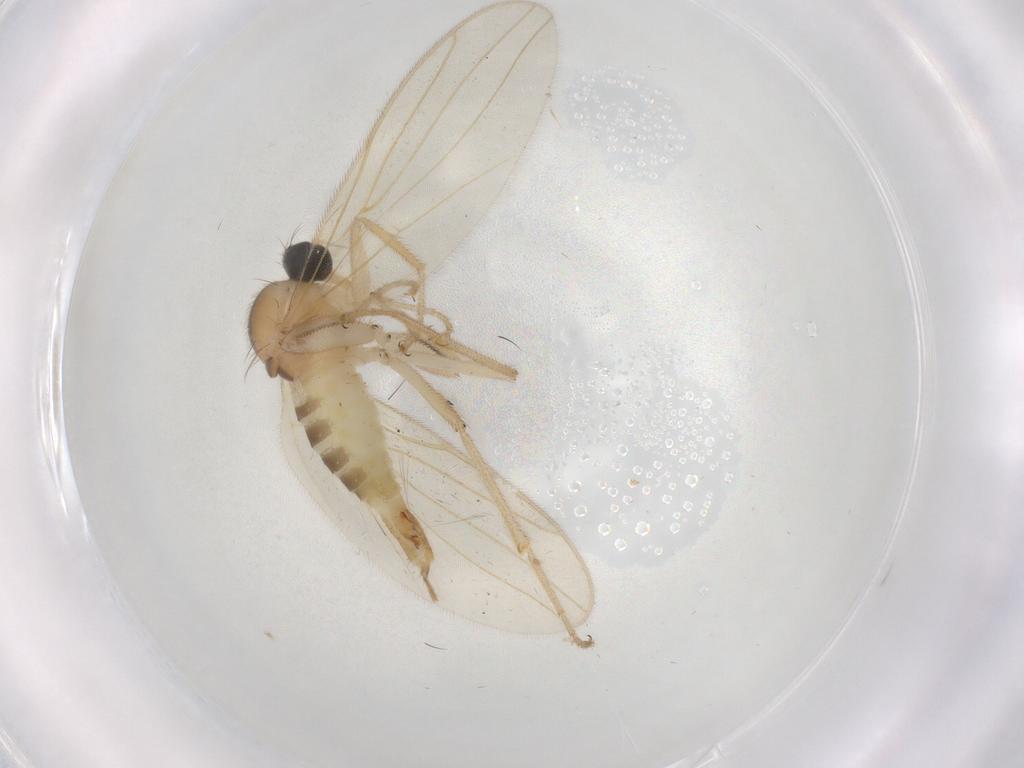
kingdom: Animalia
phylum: Arthropoda
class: Insecta
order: Diptera
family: Hybotidae
